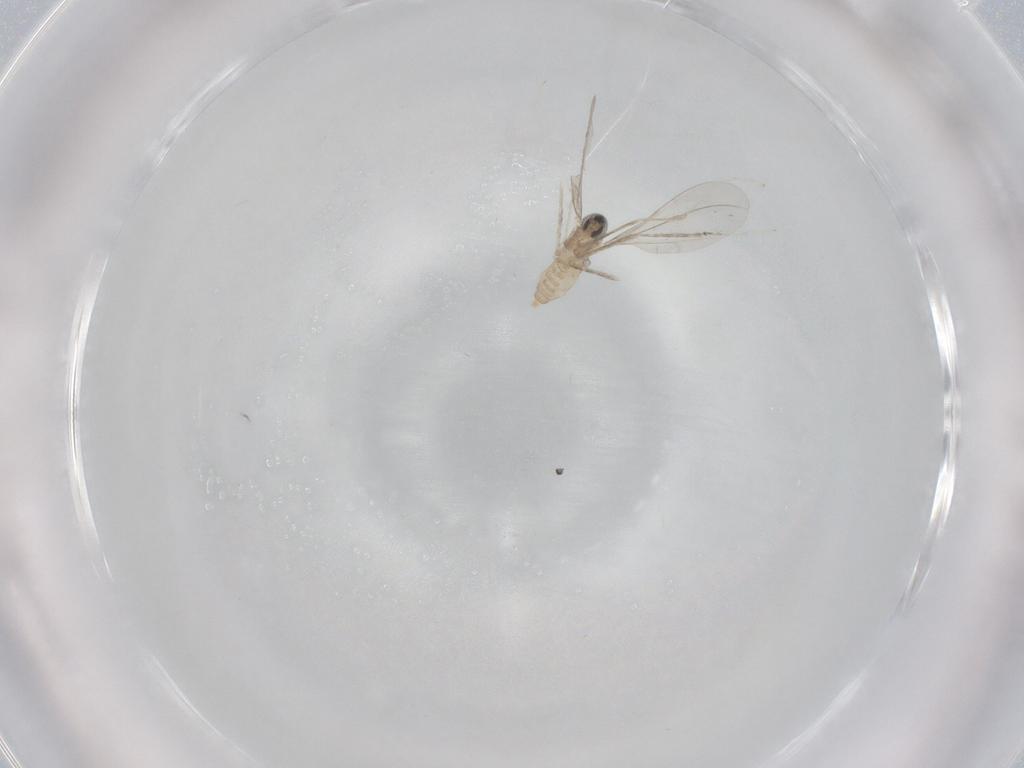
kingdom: Animalia
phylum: Arthropoda
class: Insecta
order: Diptera
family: Cecidomyiidae
